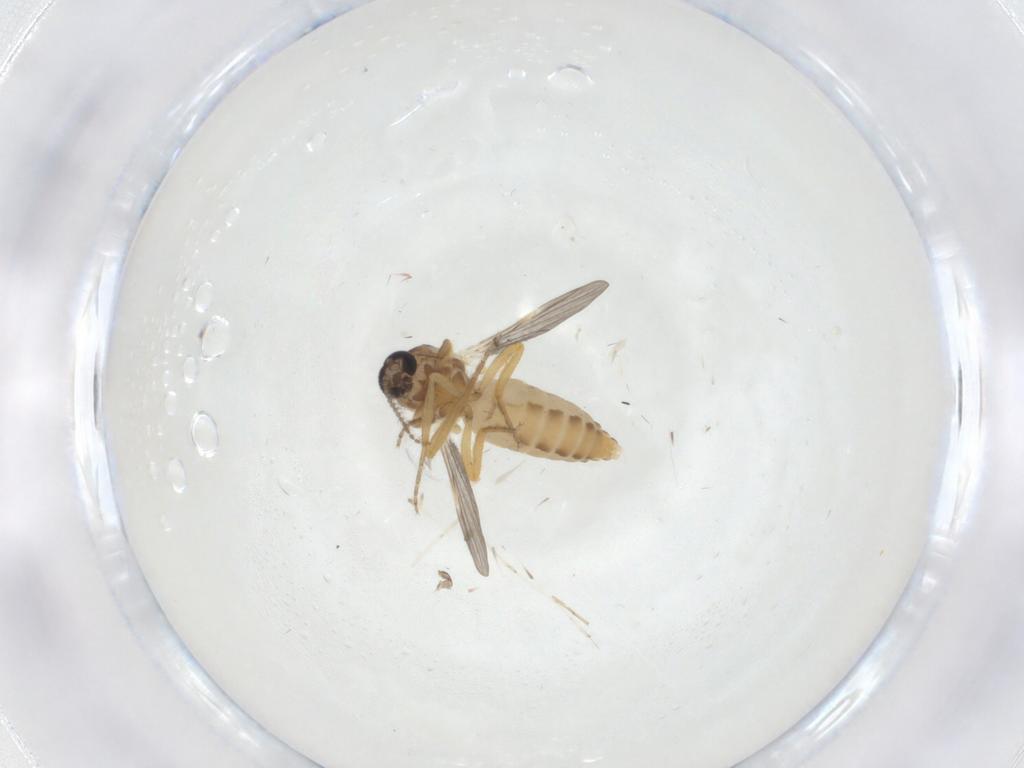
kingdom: Animalia
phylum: Arthropoda
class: Insecta
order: Diptera
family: Ceratopogonidae
